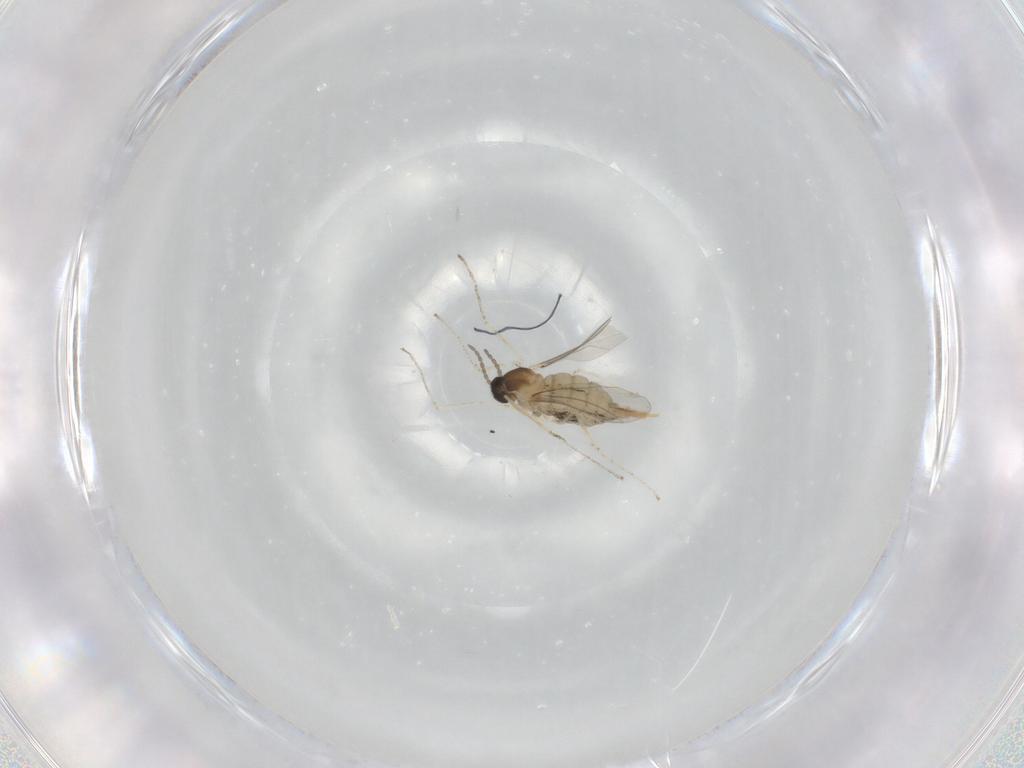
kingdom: Animalia
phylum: Arthropoda
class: Insecta
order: Diptera
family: Cecidomyiidae
